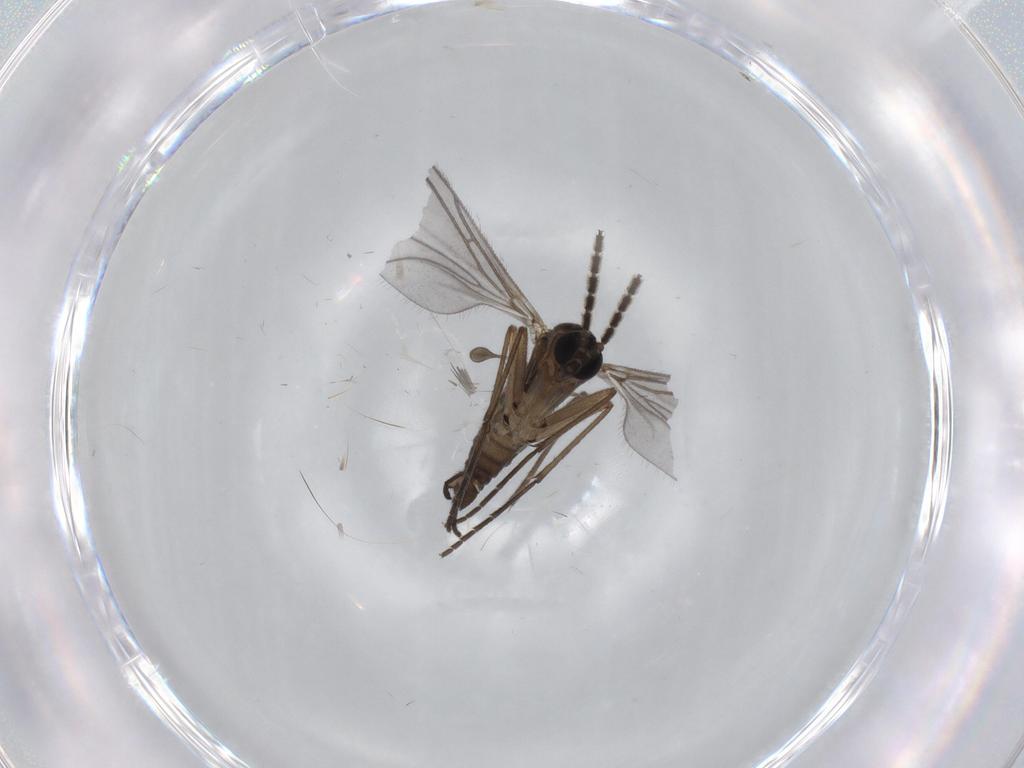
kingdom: Animalia
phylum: Arthropoda
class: Insecta
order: Diptera
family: Sciaridae
